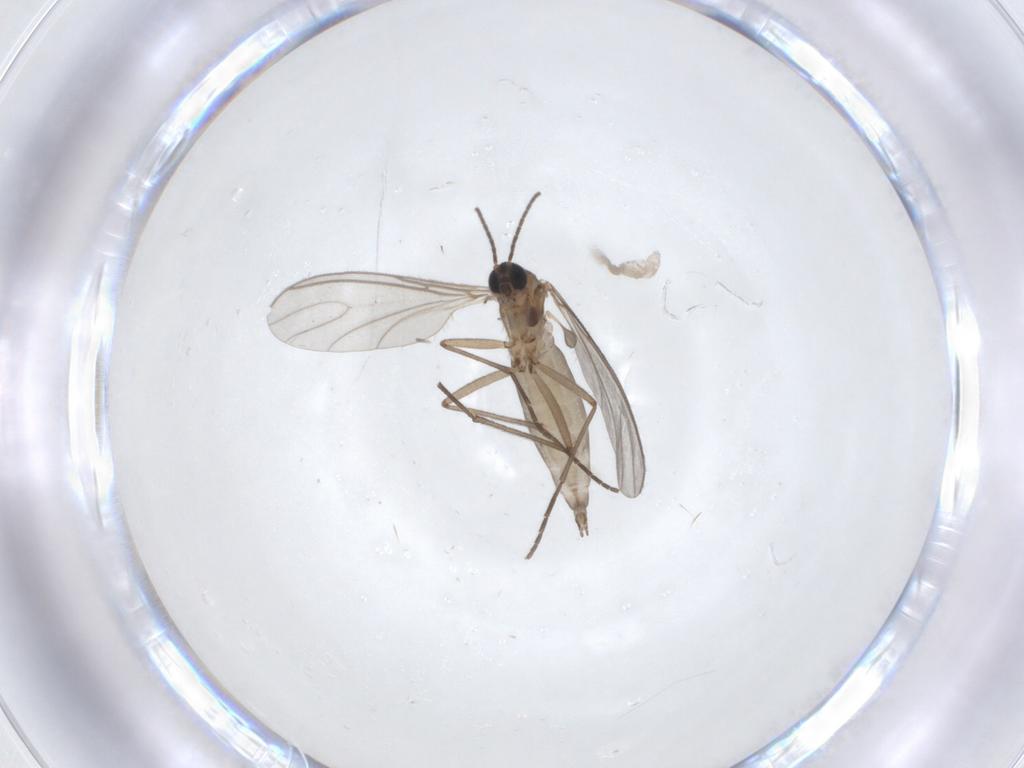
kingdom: Animalia
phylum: Arthropoda
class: Insecta
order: Diptera
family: Sciaridae
